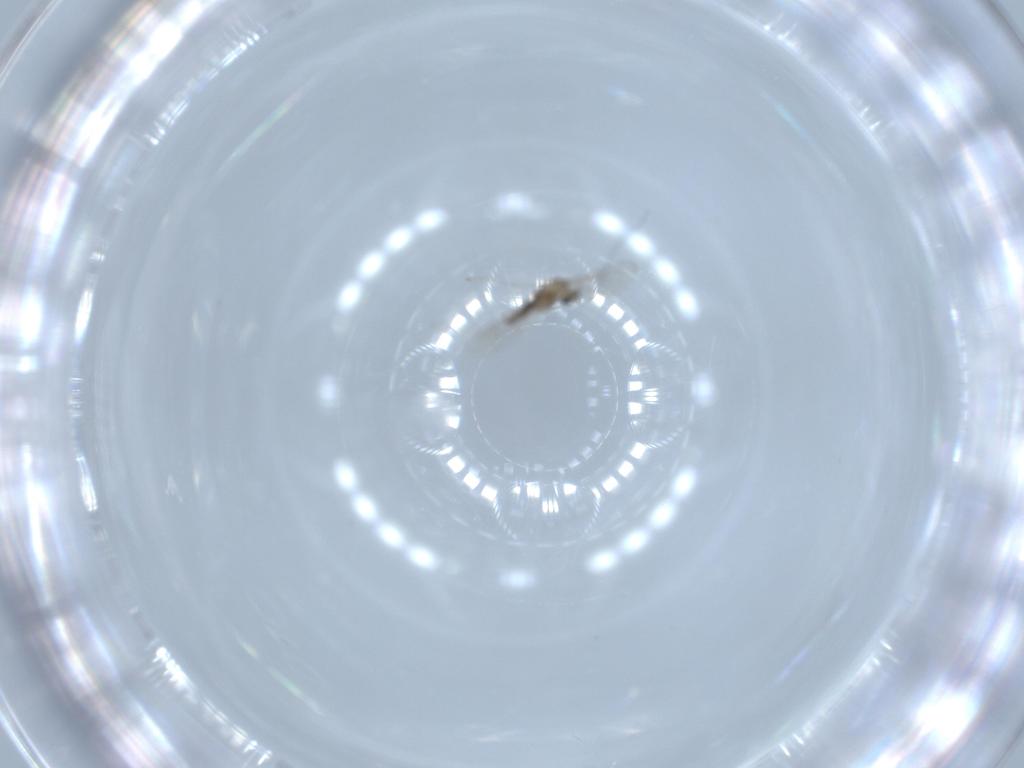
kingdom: Animalia
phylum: Arthropoda
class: Insecta
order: Diptera
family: Cecidomyiidae
